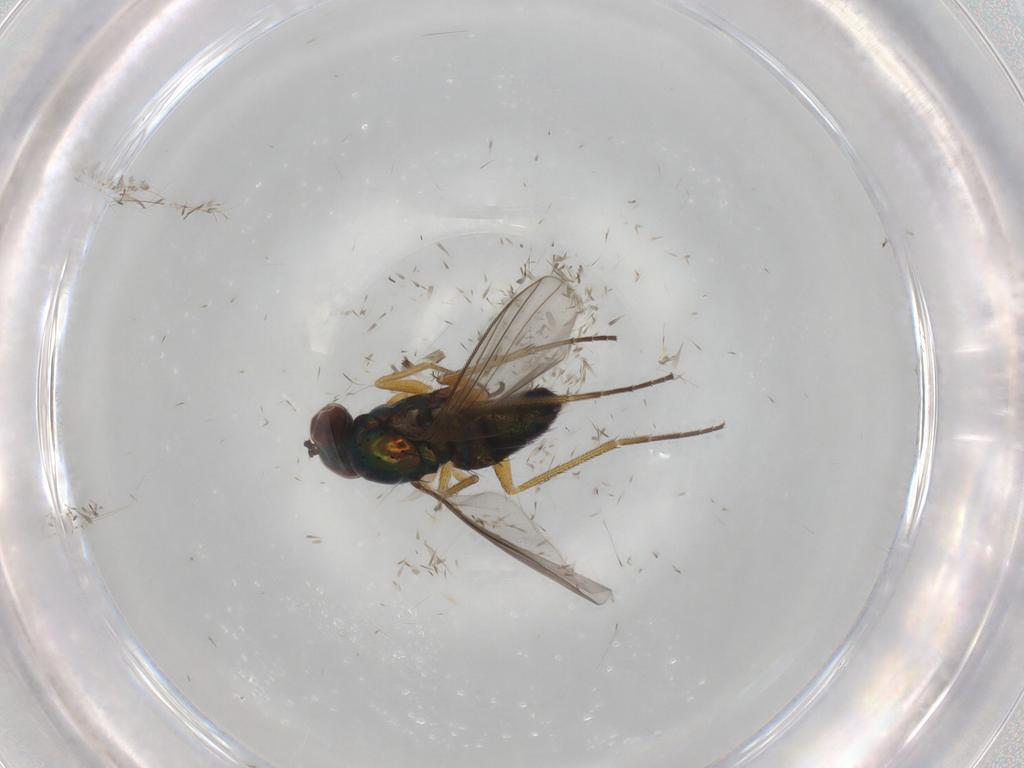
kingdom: Animalia
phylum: Arthropoda
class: Insecta
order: Diptera
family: Dolichopodidae
